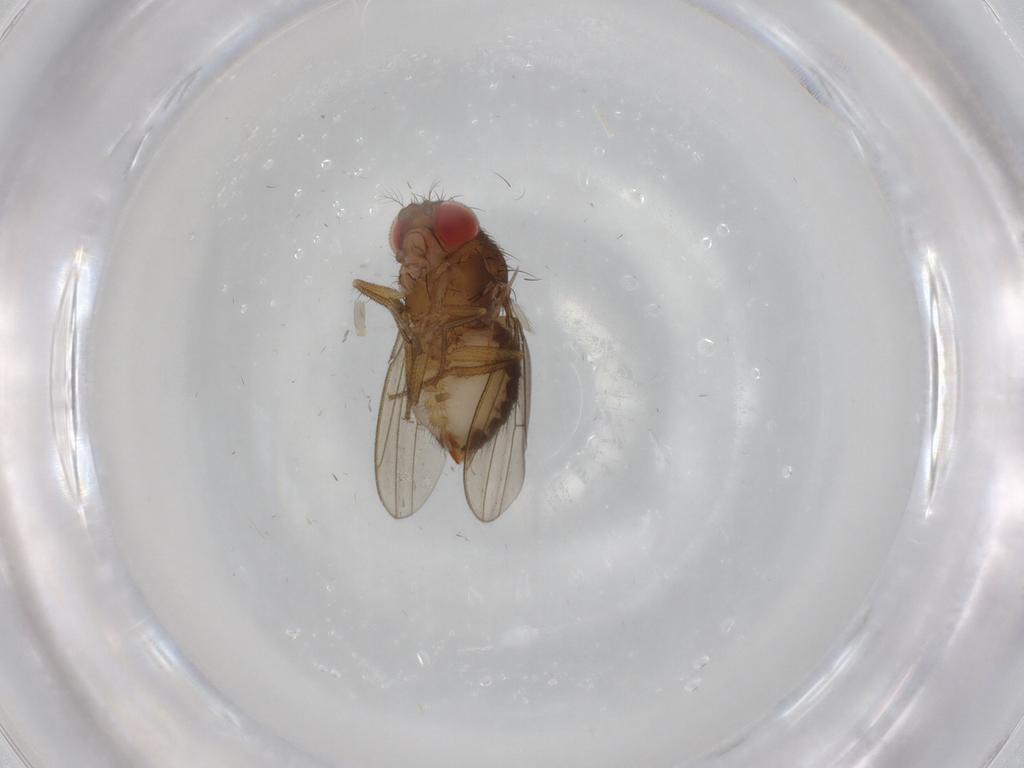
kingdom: Animalia
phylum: Arthropoda
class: Insecta
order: Diptera
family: Drosophilidae
